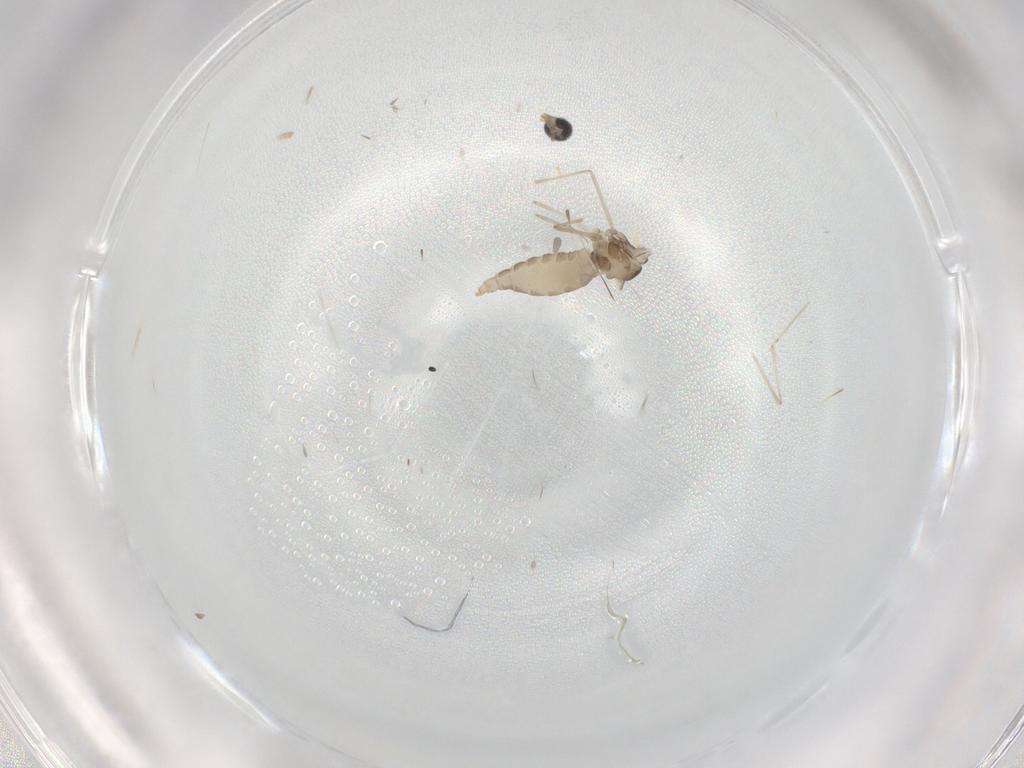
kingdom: Animalia
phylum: Arthropoda
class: Insecta
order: Diptera
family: Cecidomyiidae
